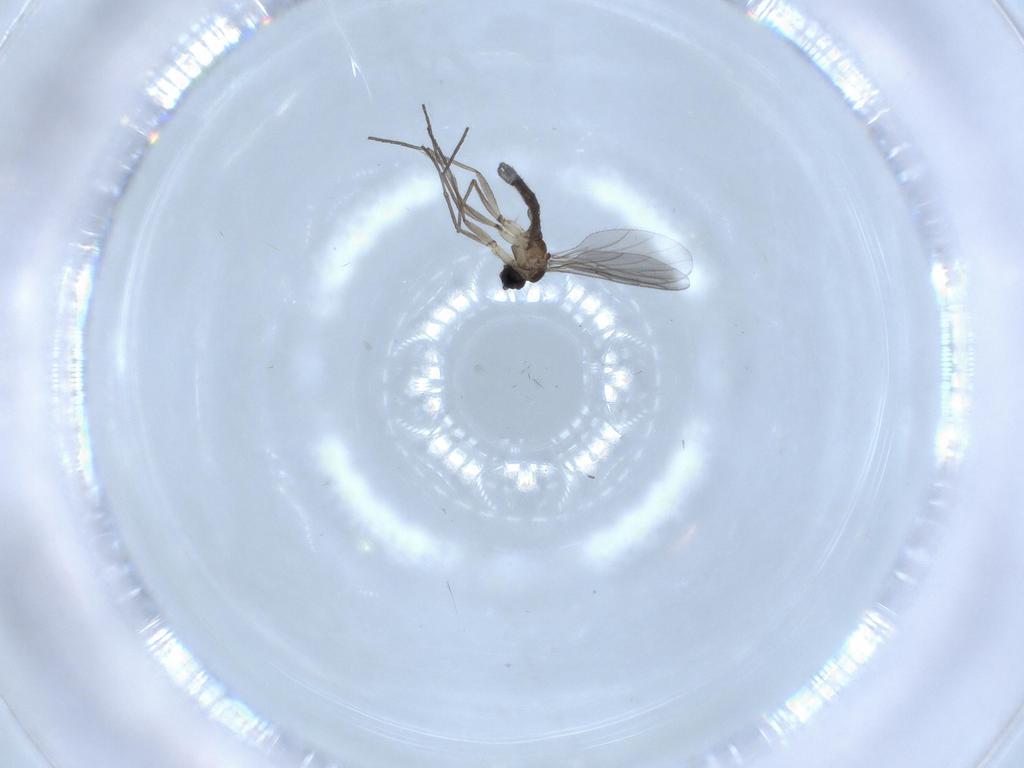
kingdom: Animalia
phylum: Arthropoda
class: Insecta
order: Diptera
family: Sciaridae
